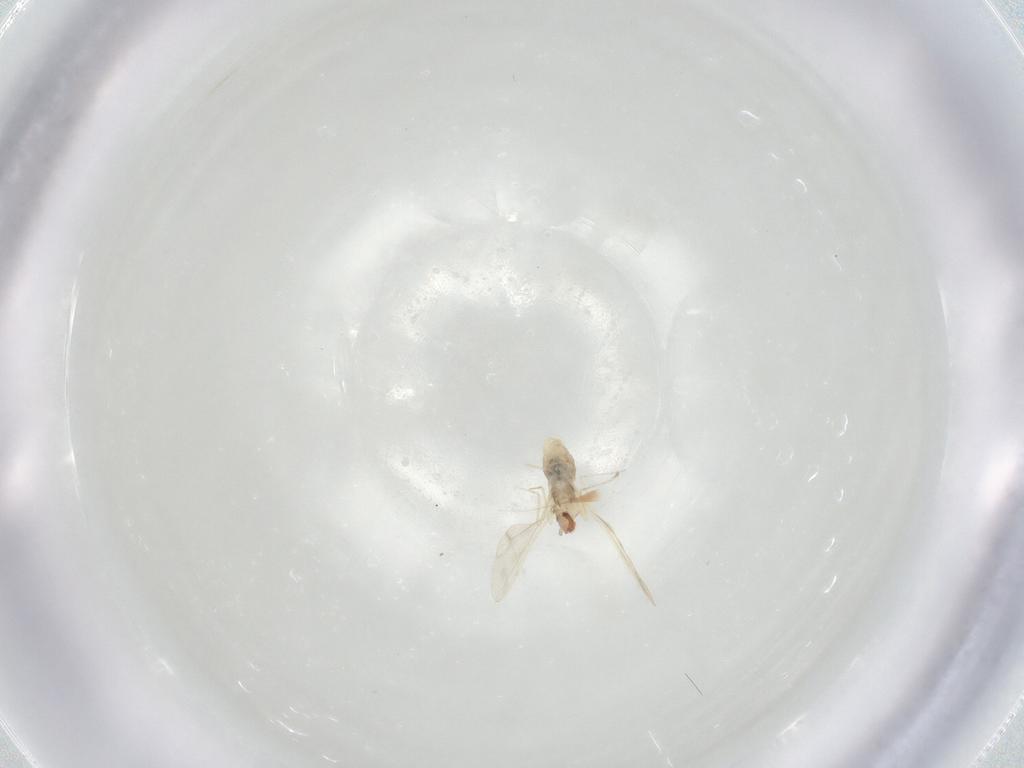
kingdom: Animalia
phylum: Arthropoda
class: Insecta
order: Diptera
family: Cecidomyiidae
